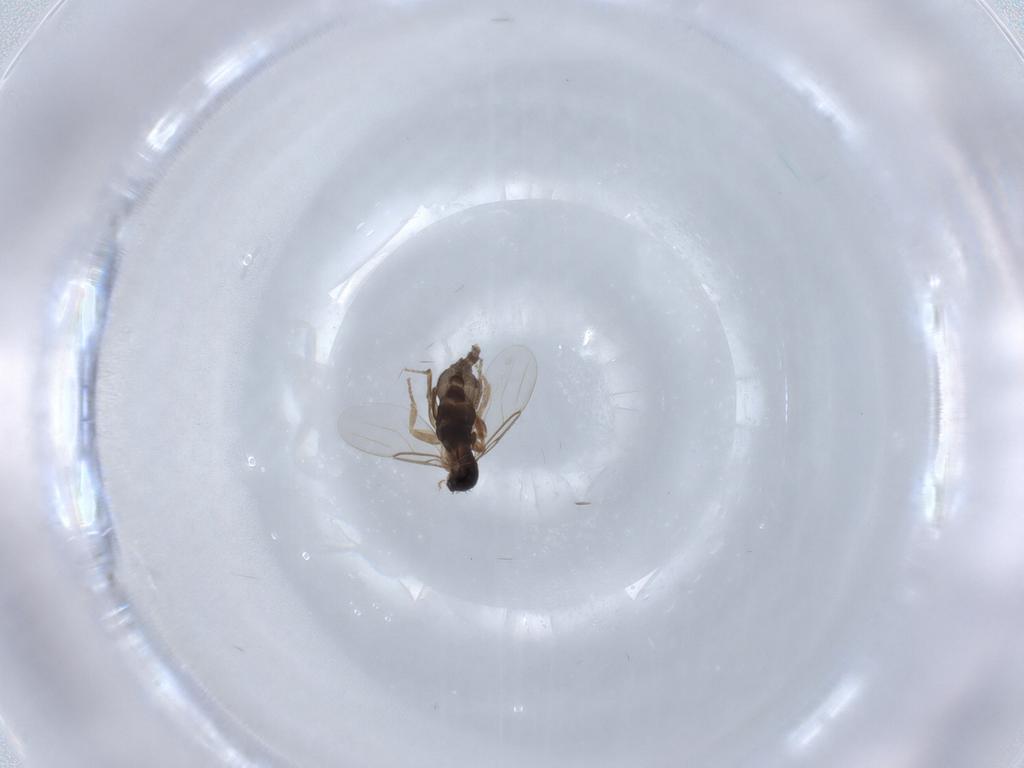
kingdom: Animalia
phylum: Arthropoda
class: Insecta
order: Diptera
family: Phoridae
